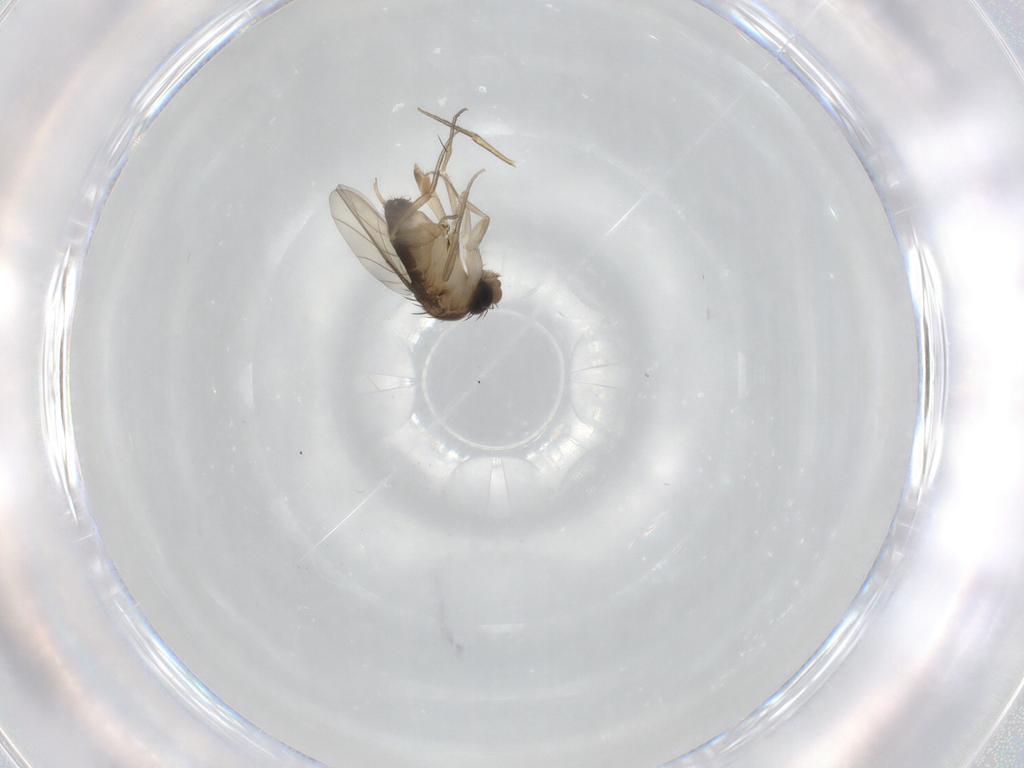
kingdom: Animalia
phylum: Arthropoda
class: Insecta
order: Diptera
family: Phoridae
